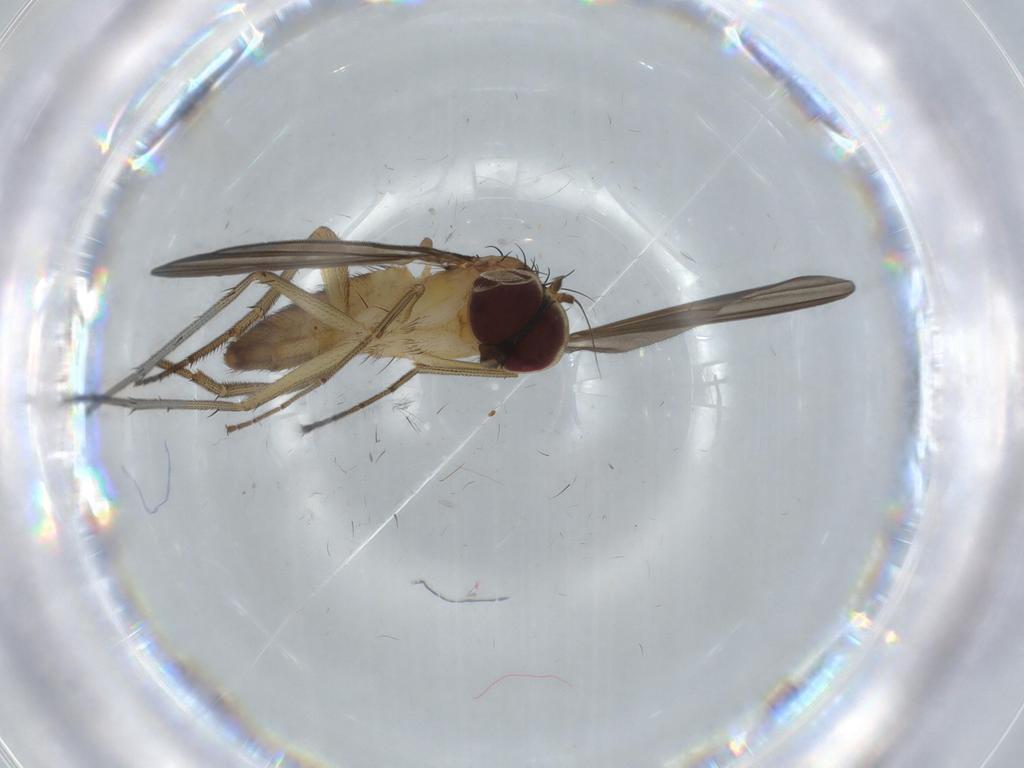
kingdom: Animalia
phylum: Arthropoda
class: Insecta
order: Diptera
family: Dolichopodidae
